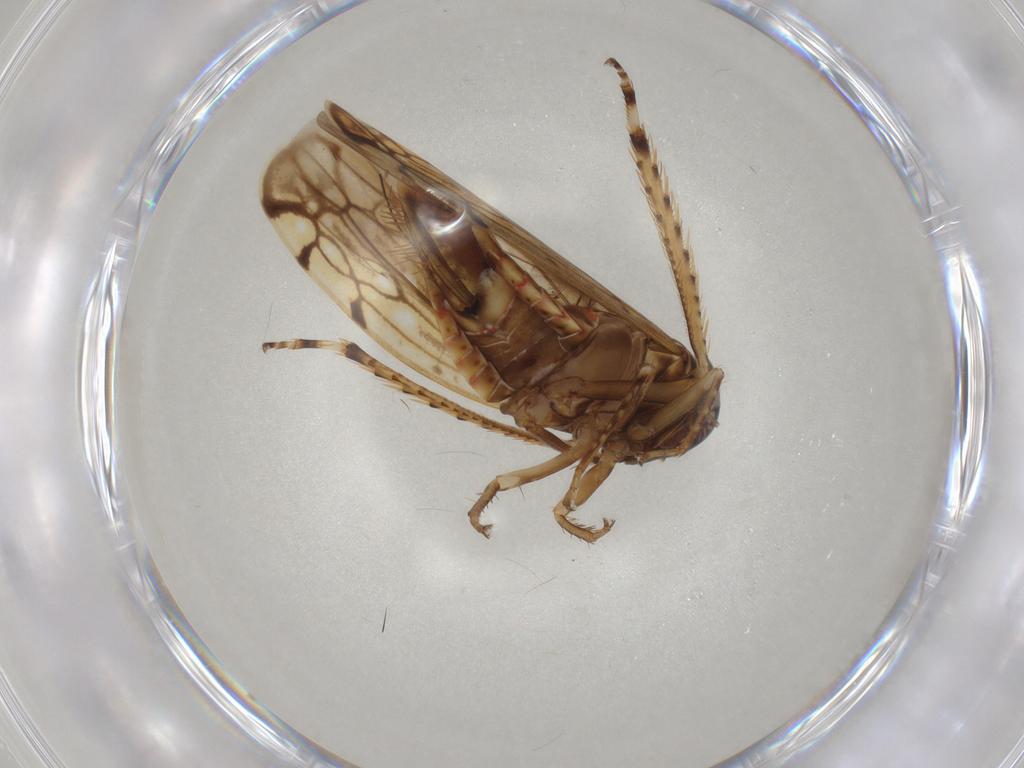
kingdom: Animalia
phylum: Arthropoda
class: Insecta
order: Hemiptera
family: Cicadellidae
